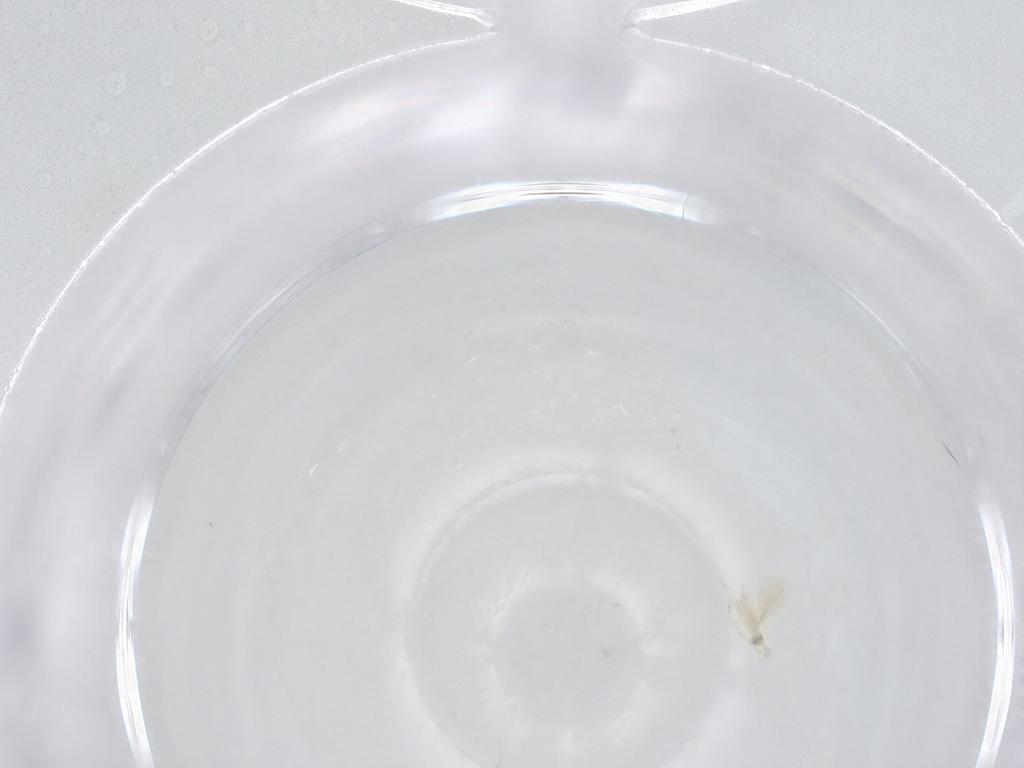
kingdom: Animalia
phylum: Arthropoda
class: Insecta
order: Hymenoptera
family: Aphelinidae
